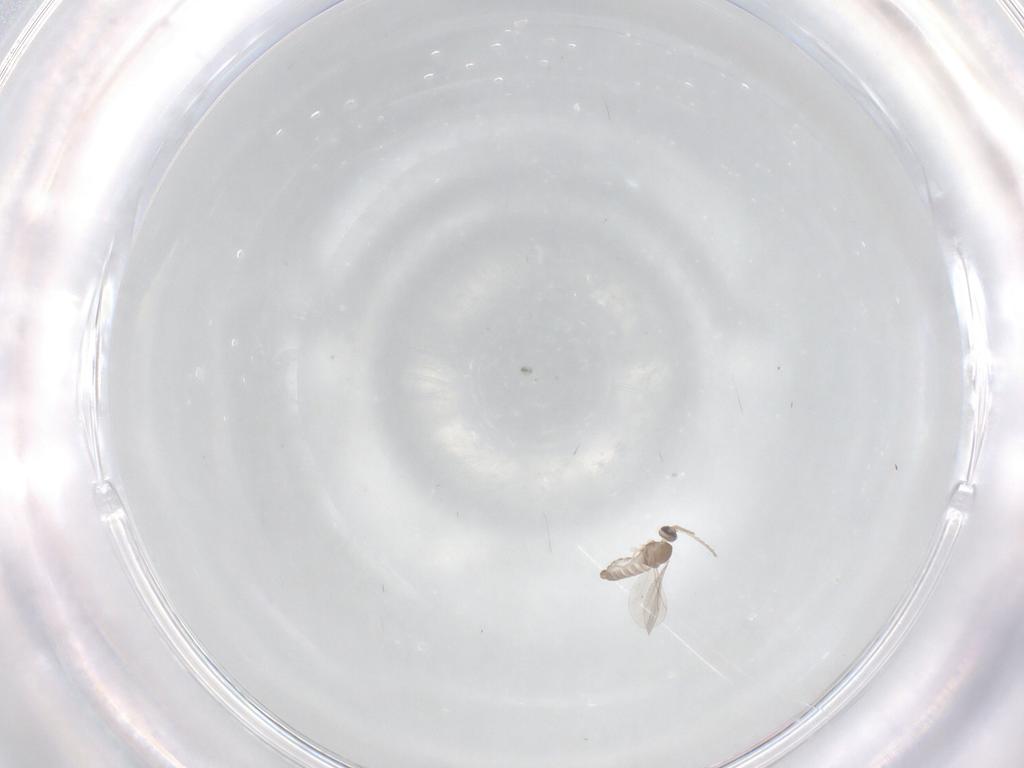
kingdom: Animalia
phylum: Arthropoda
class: Insecta
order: Diptera
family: Cecidomyiidae
